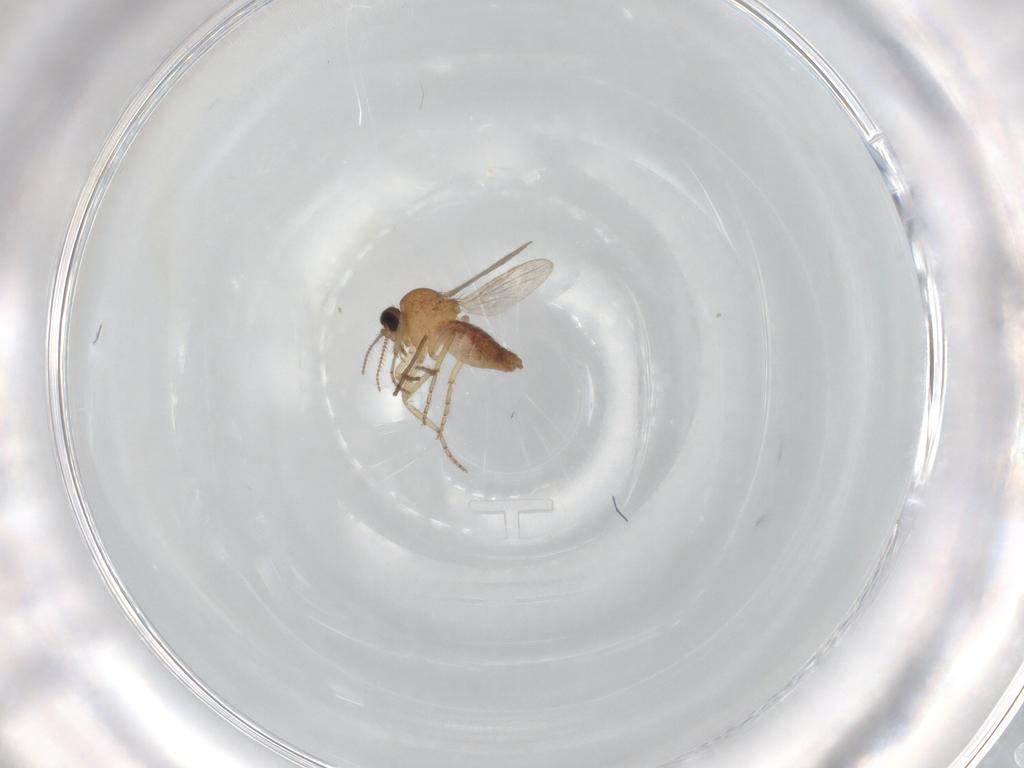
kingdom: Animalia
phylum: Arthropoda
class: Insecta
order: Diptera
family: Ceratopogonidae
